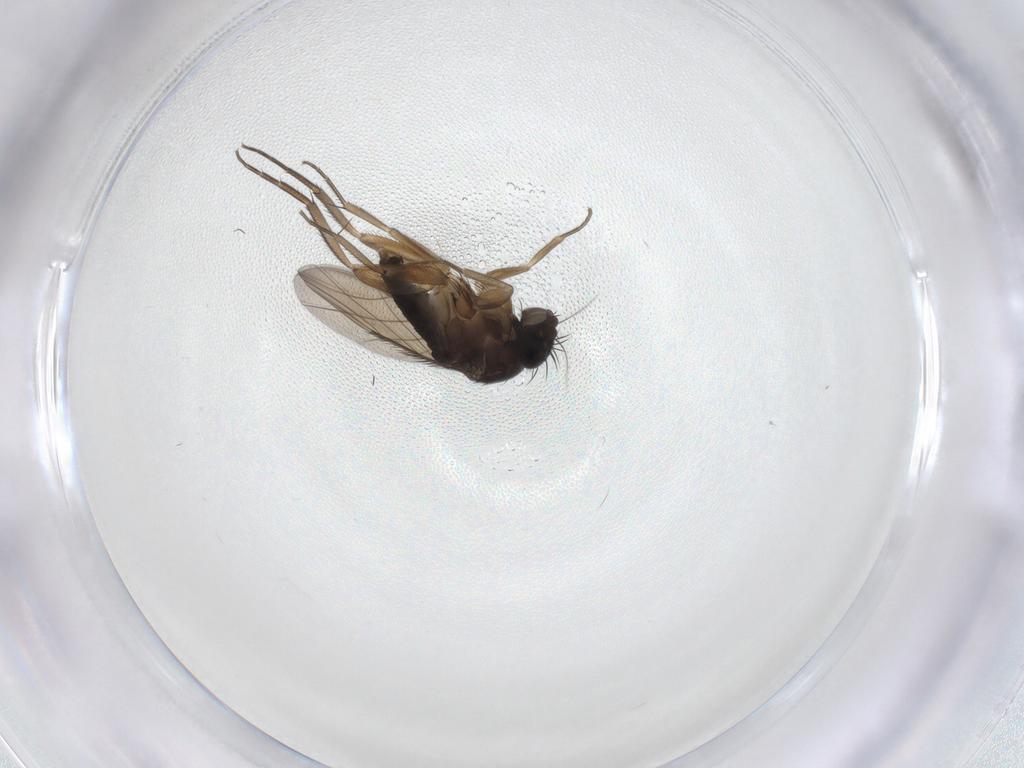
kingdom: Animalia
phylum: Arthropoda
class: Insecta
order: Diptera
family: Phoridae
